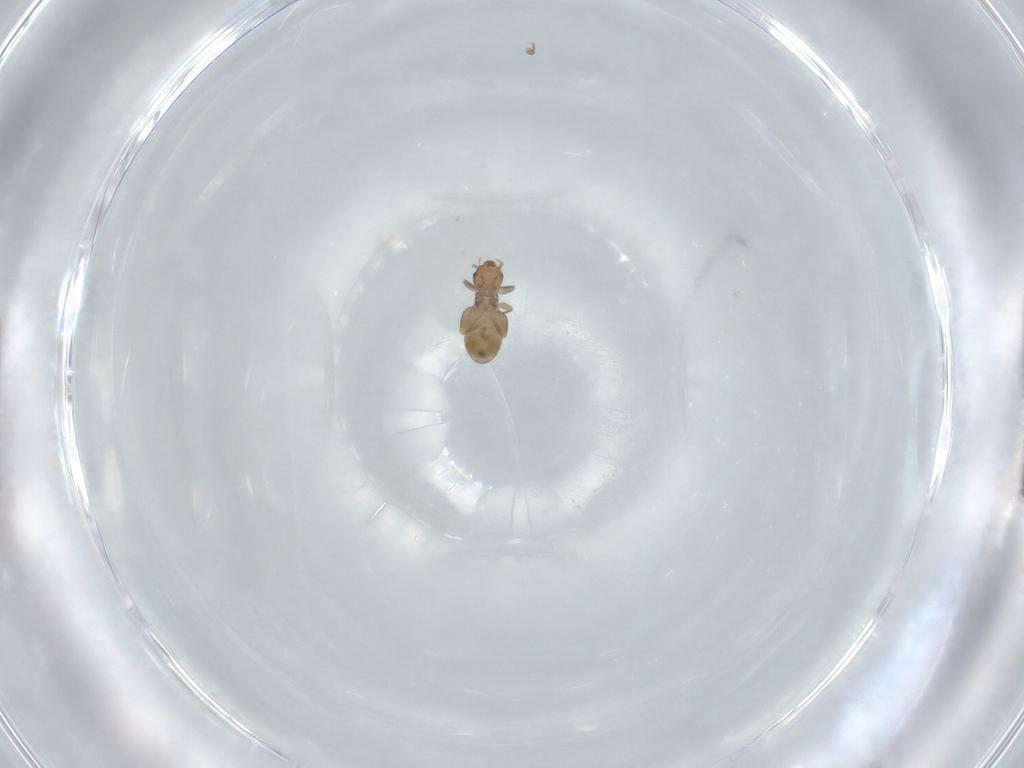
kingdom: Animalia
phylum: Arthropoda
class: Insecta
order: Psocodea
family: Liposcelididae
